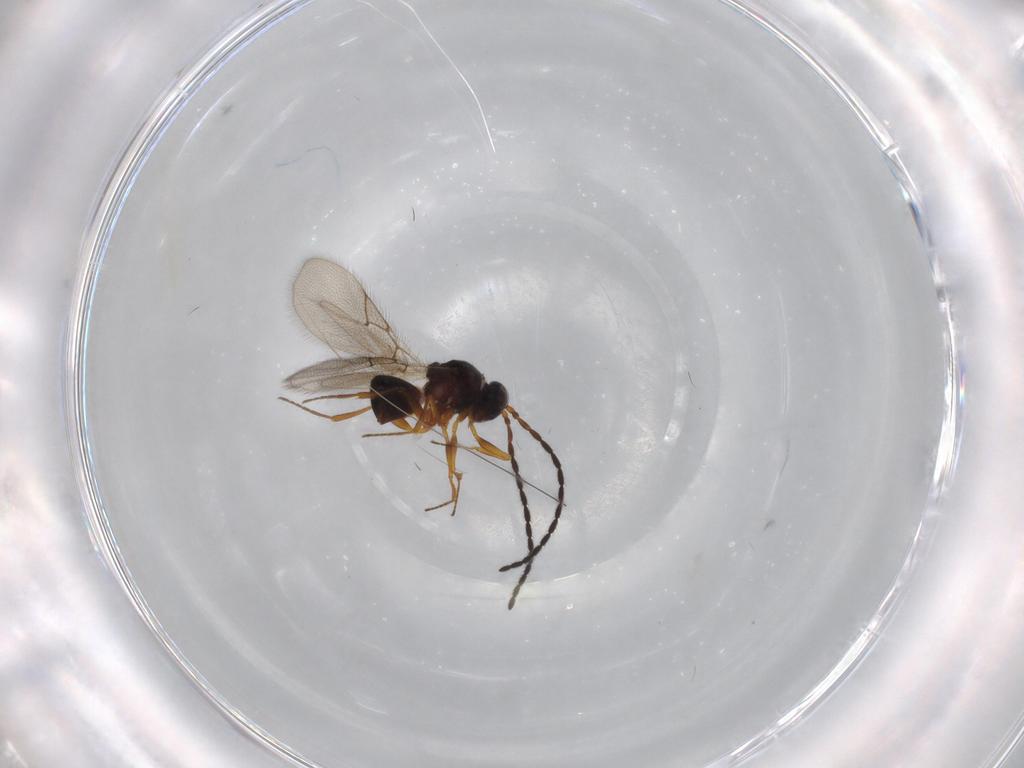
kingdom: Animalia
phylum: Arthropoda
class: Insecta
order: Hymenoptera
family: Figitidae
